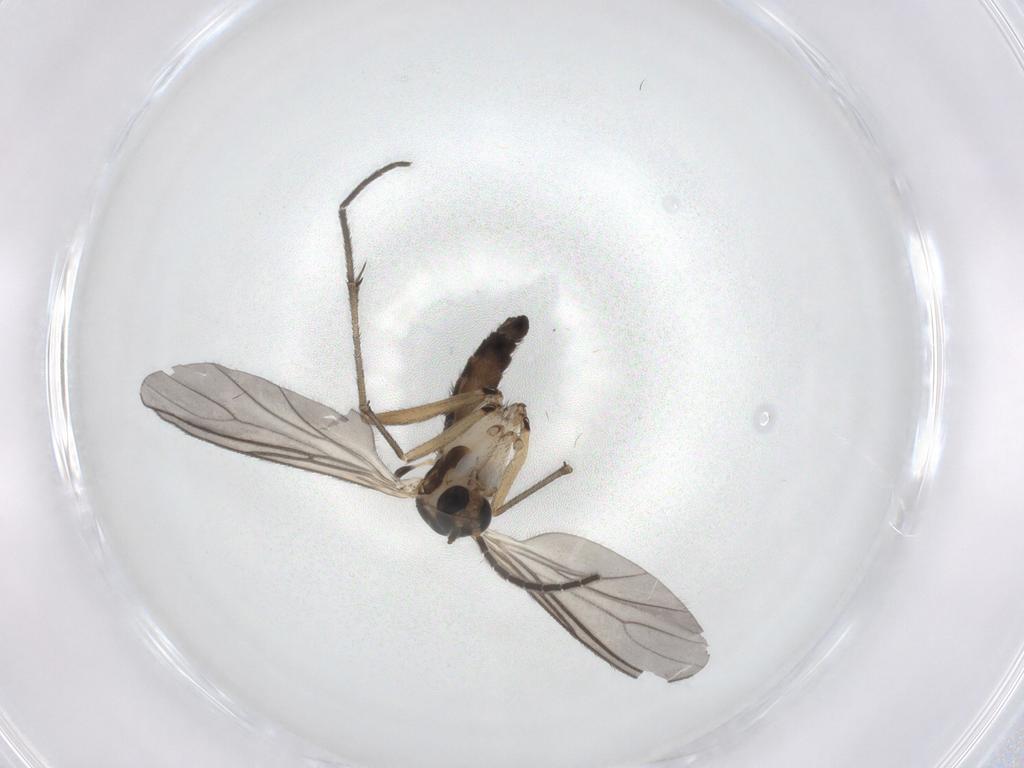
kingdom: Animalia
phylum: Arthropoda
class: Insecta
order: Diptera
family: Sciaridae
